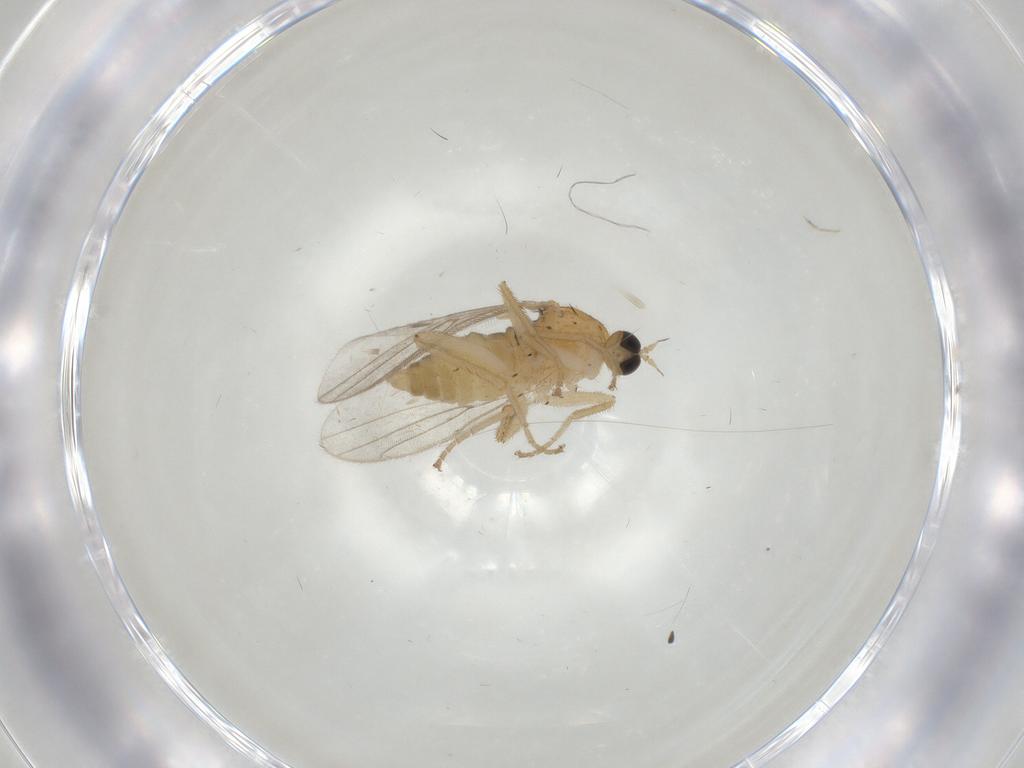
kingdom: Animalia
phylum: Arthropoda
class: Insecta
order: Diptera
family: Hybotidae
